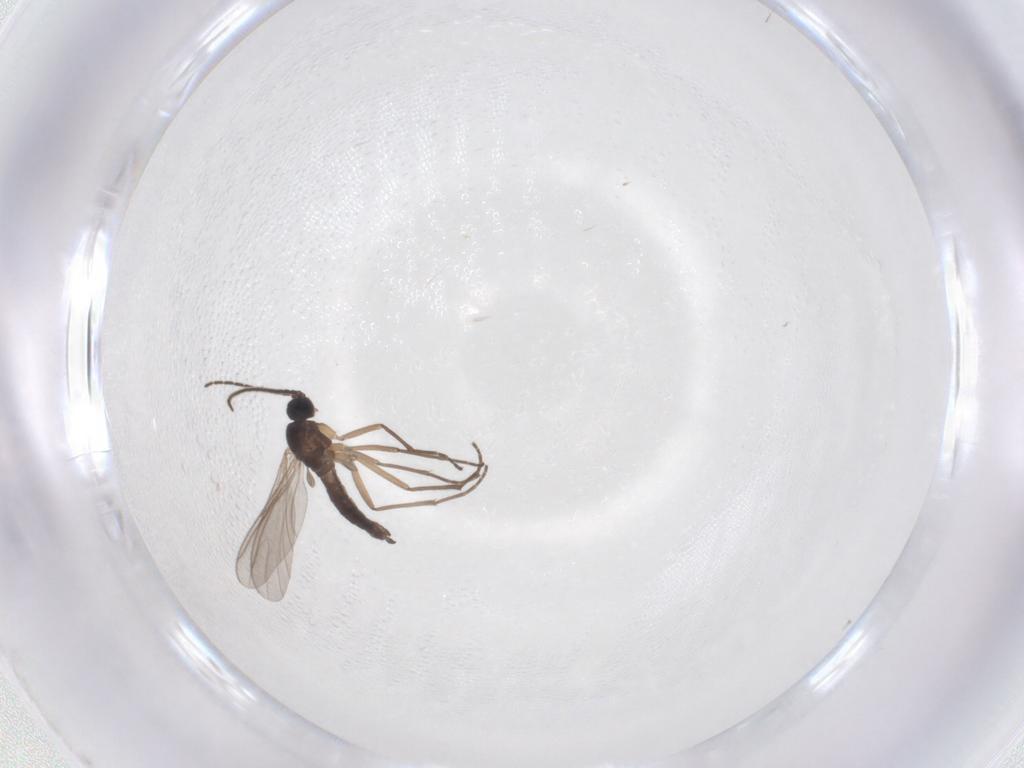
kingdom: Animalia
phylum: Arthropoda
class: Insecta
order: Diptera
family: Sciaridae
